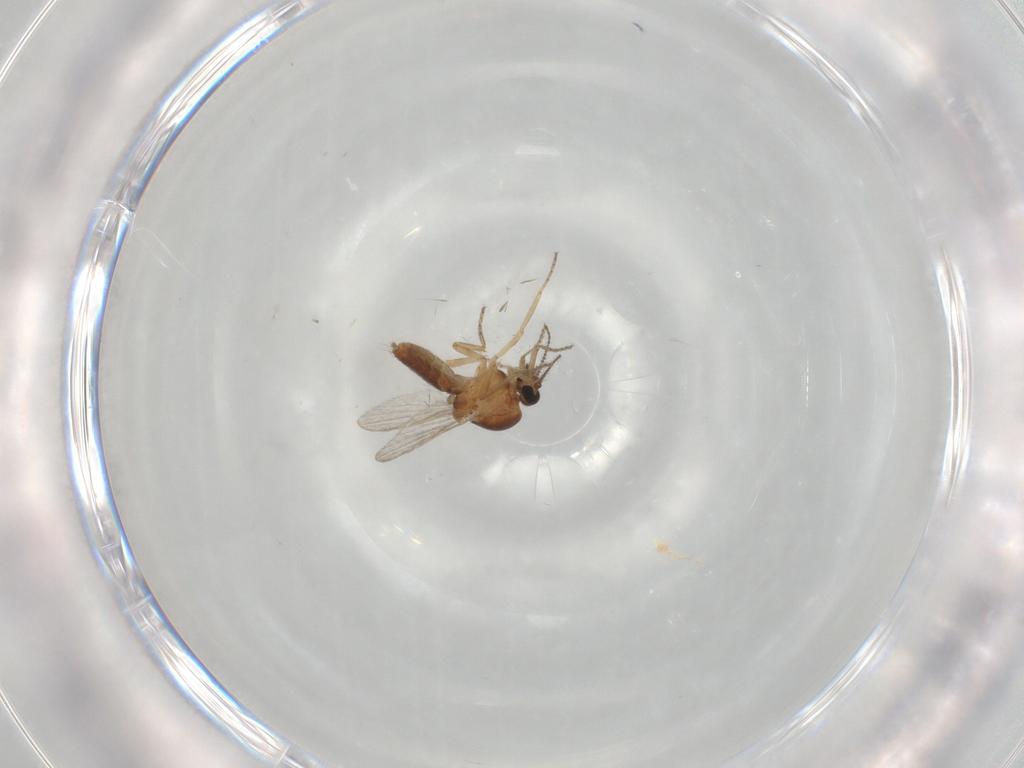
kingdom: Animalia
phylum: Arthropoda
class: Insecta
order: Diptera
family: Ceratopogonidae
